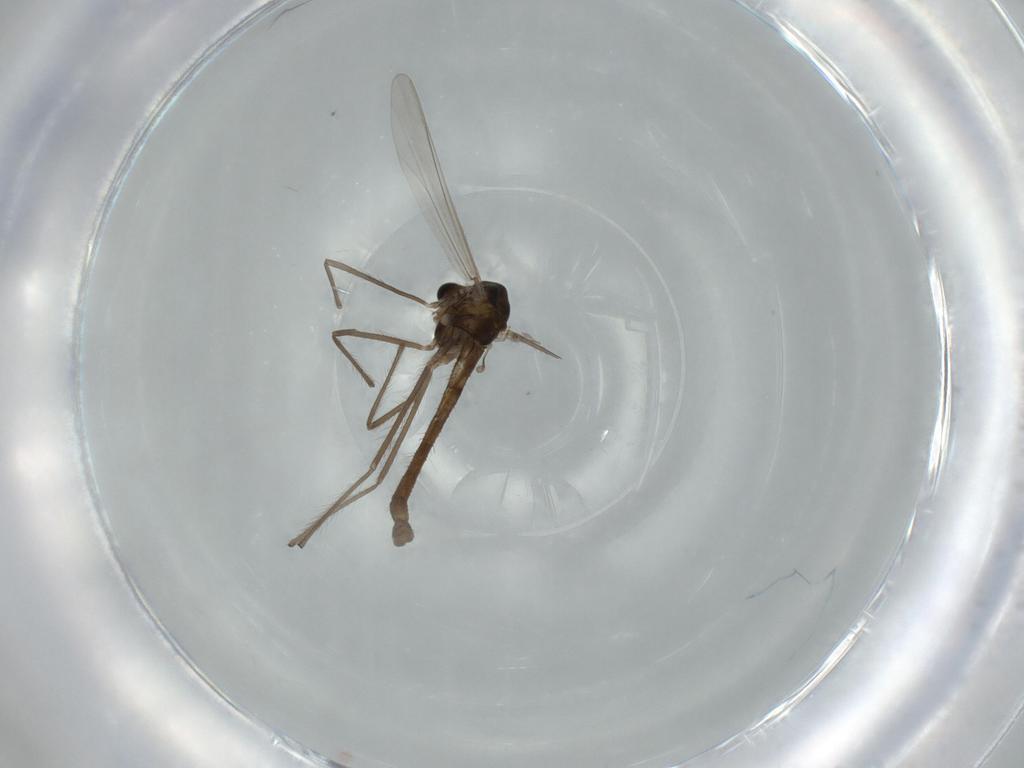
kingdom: Animalia
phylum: Arthropoda
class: Insecta
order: Diptera
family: Chironomidae
